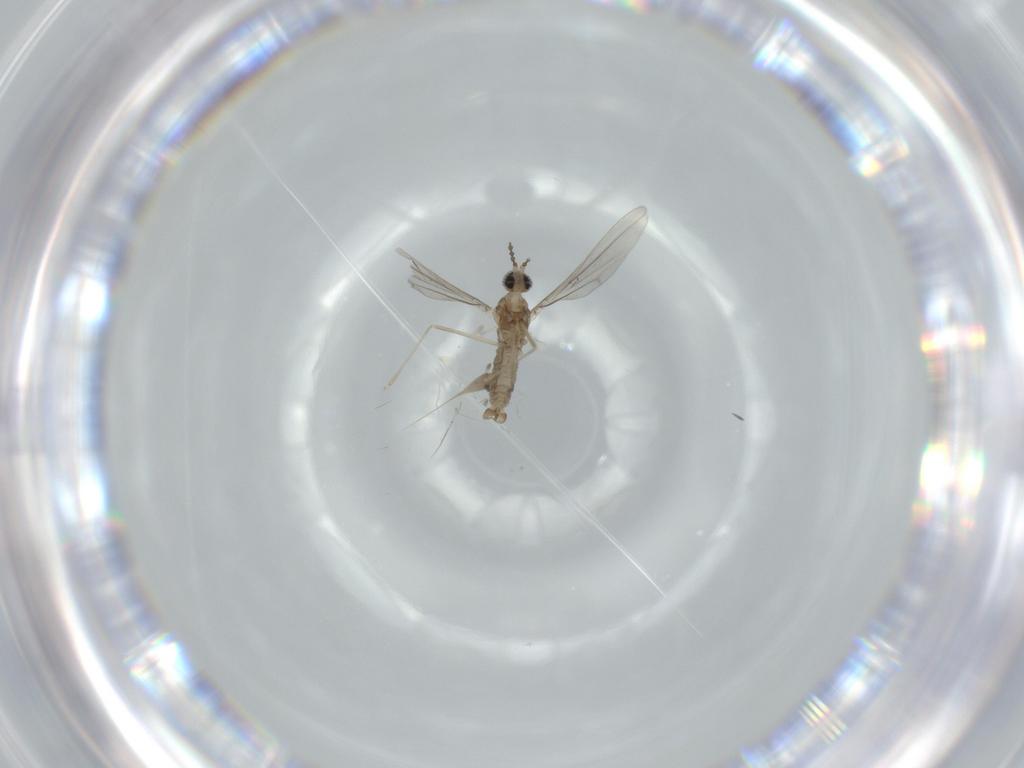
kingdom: Animalia
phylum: Arthropoda
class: Insecta
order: Diptera
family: Cecidomyiidae
